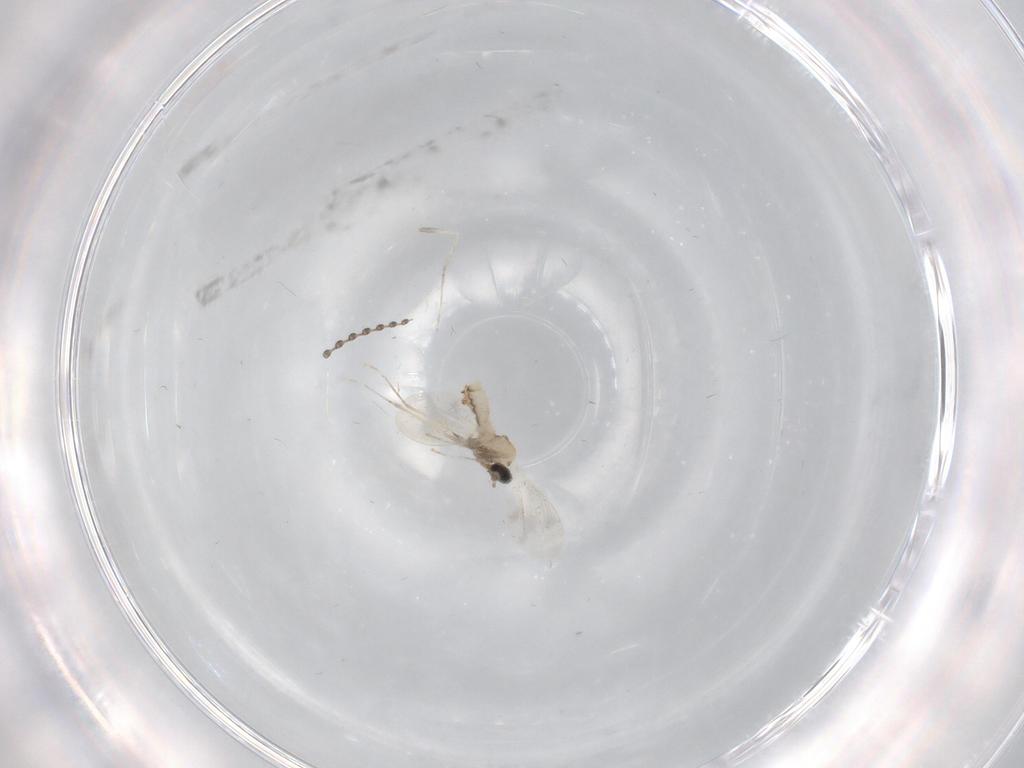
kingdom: Animalia
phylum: Arthropoda
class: Insecta
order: Diptera
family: Cecidomyiidae
